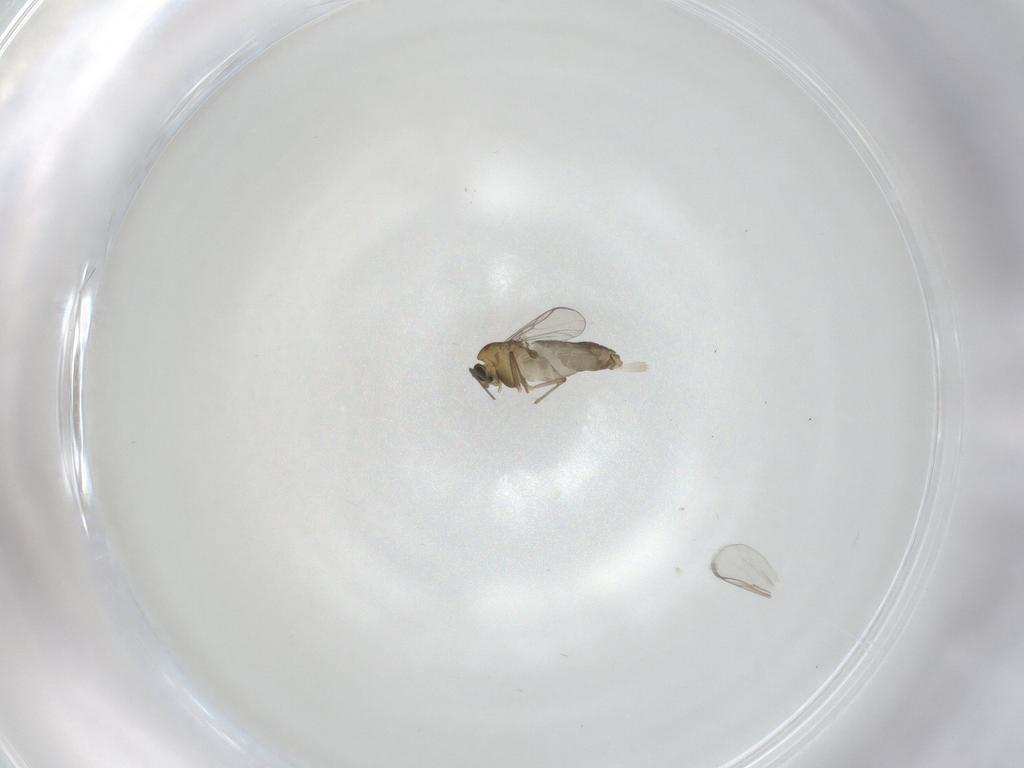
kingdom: Animalia
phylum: Arthropoda
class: Insecta
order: Diptera
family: Chironomidae
